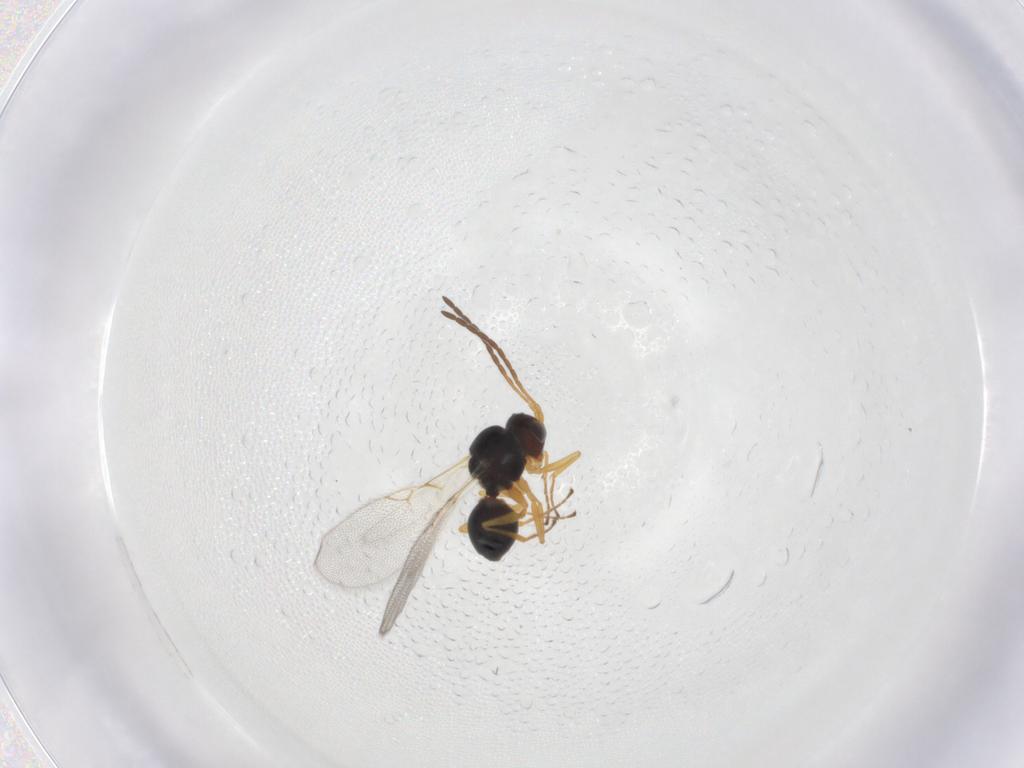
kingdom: Animalia
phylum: Arthropoda
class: Insecta
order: Hymenoptera
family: Figitidae
